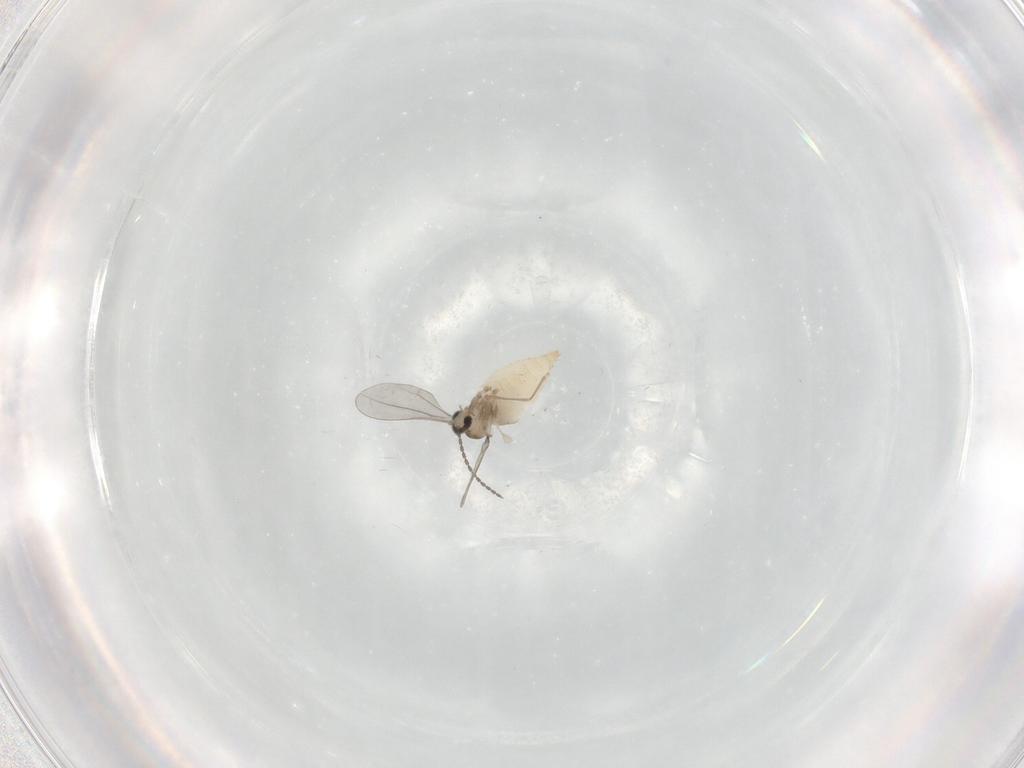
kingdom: Animalia
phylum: Arthropoda
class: Insecta
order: Diptera
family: Cecidomyiidae
